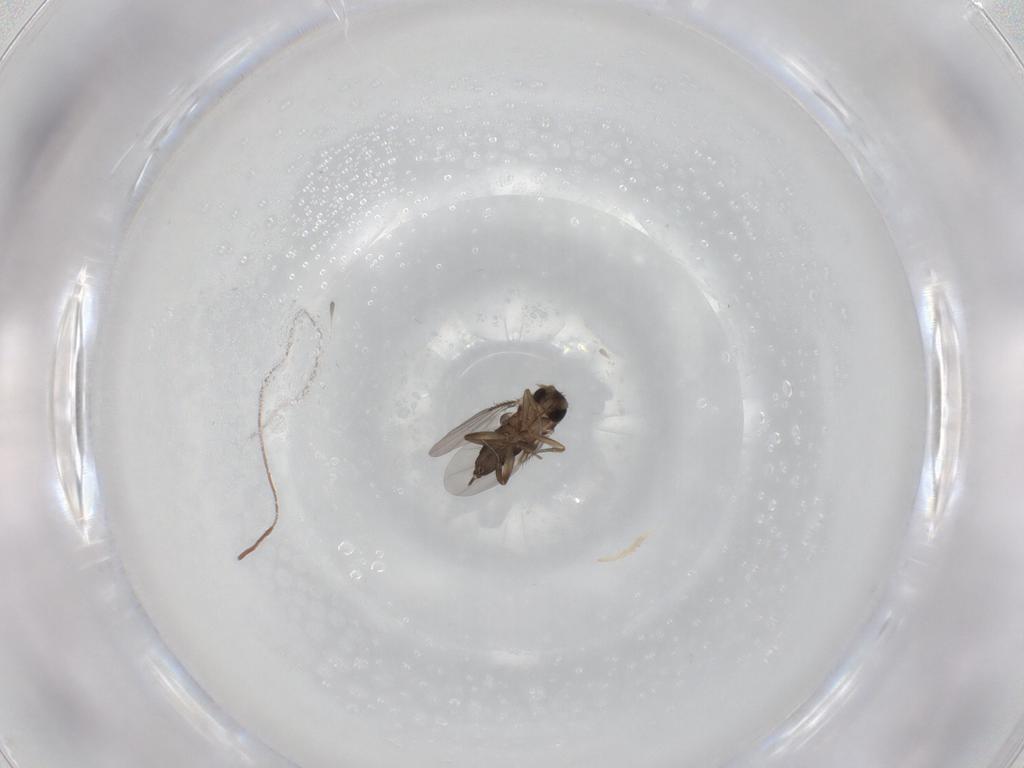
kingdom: Animalia
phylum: Arthropoda
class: Insecta
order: Diptera
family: Phoridae
